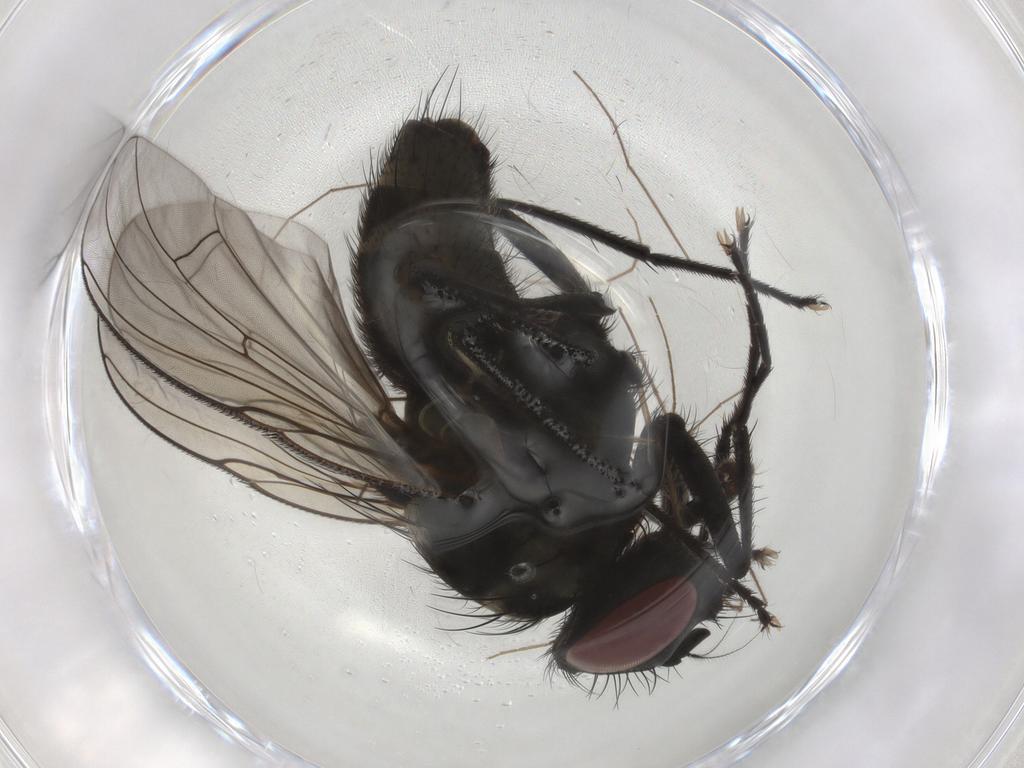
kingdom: Animalia
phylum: Arthropoda
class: Insecta
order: Diptera
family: Muscidae
